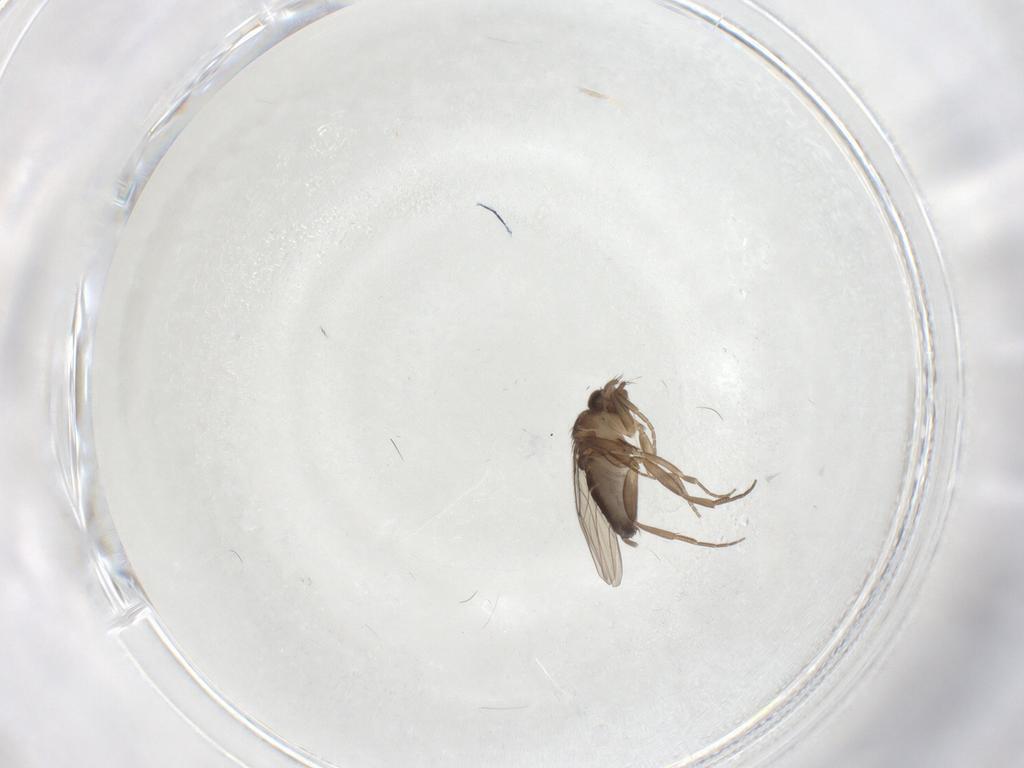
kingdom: Animalia
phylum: Arthropoda
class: Insecta
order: Diptera
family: Phoridae
